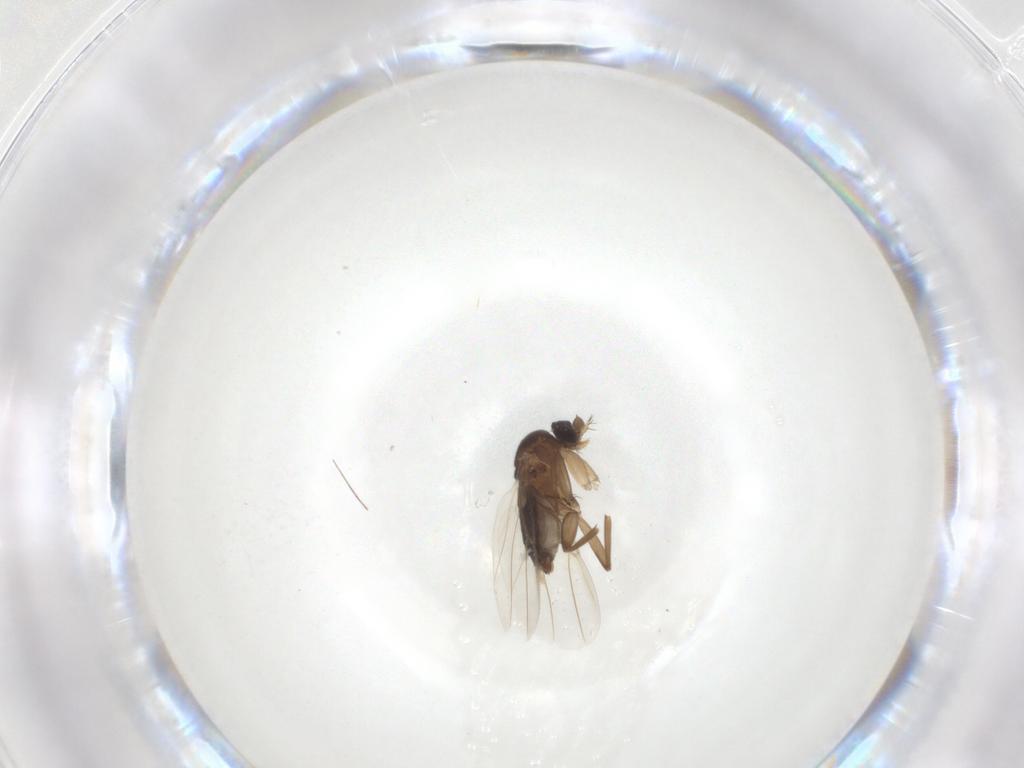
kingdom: Animalia
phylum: Arthropoda
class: Insecta
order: Diptera
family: Phoridae
